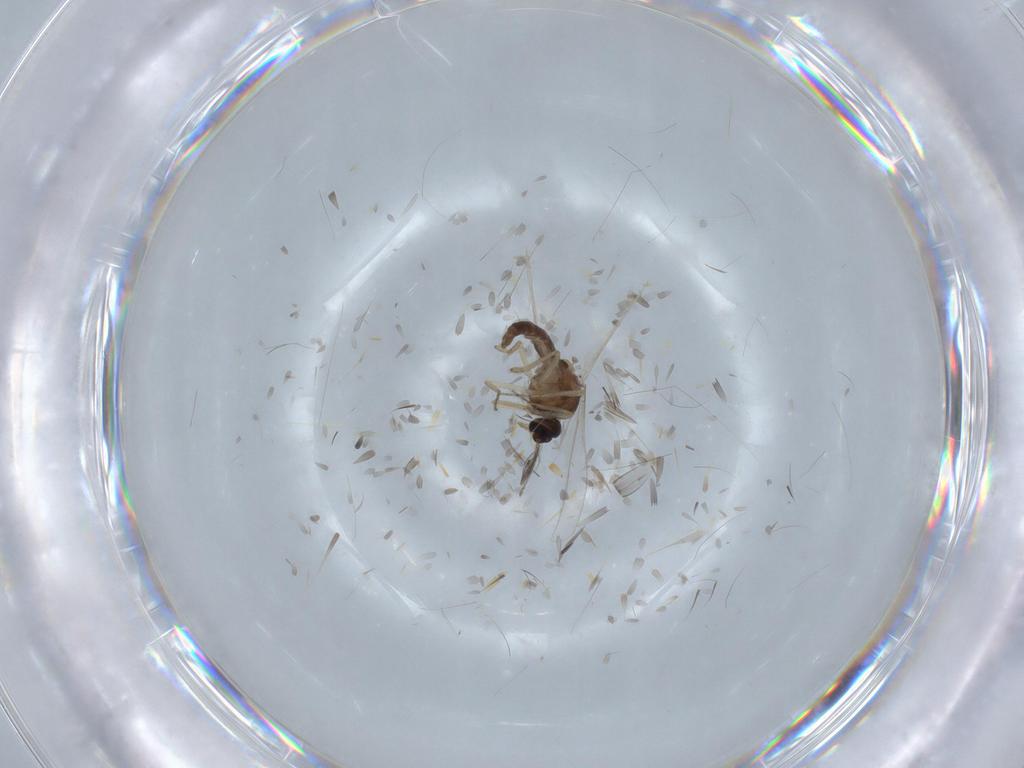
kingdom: Animalia
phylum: Arthropoda
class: Insecta
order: Diptera
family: Ceratopogonidae
